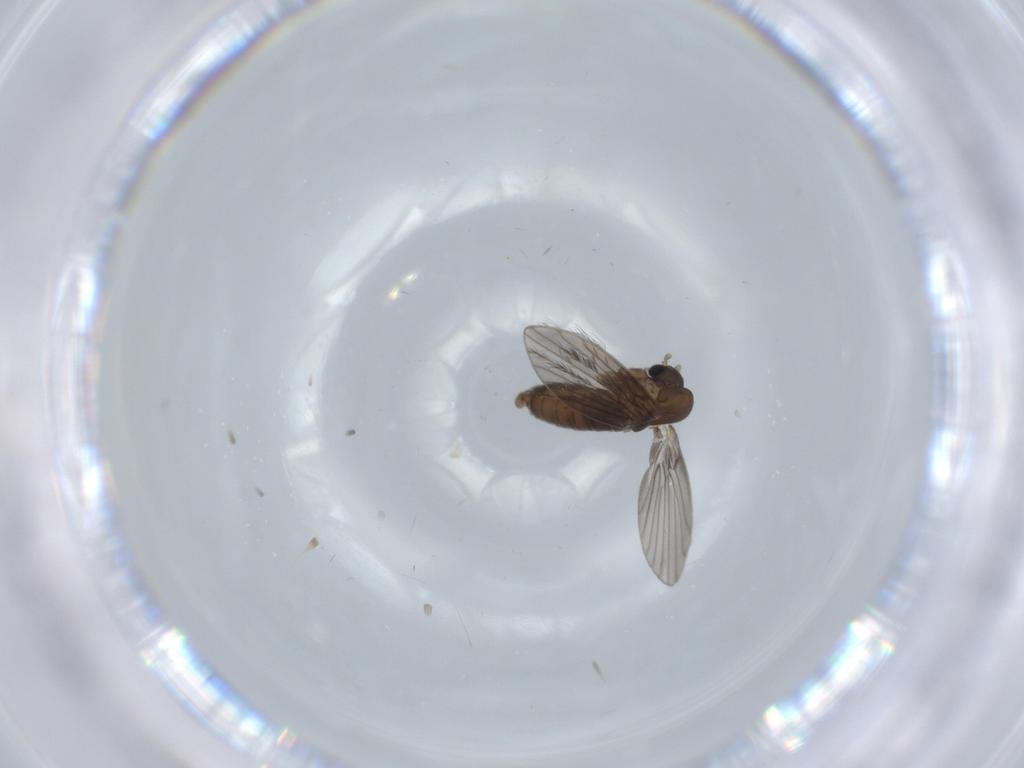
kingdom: Animalia
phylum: Arthropoda
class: Insecta
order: Diptera
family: Psychodidae
